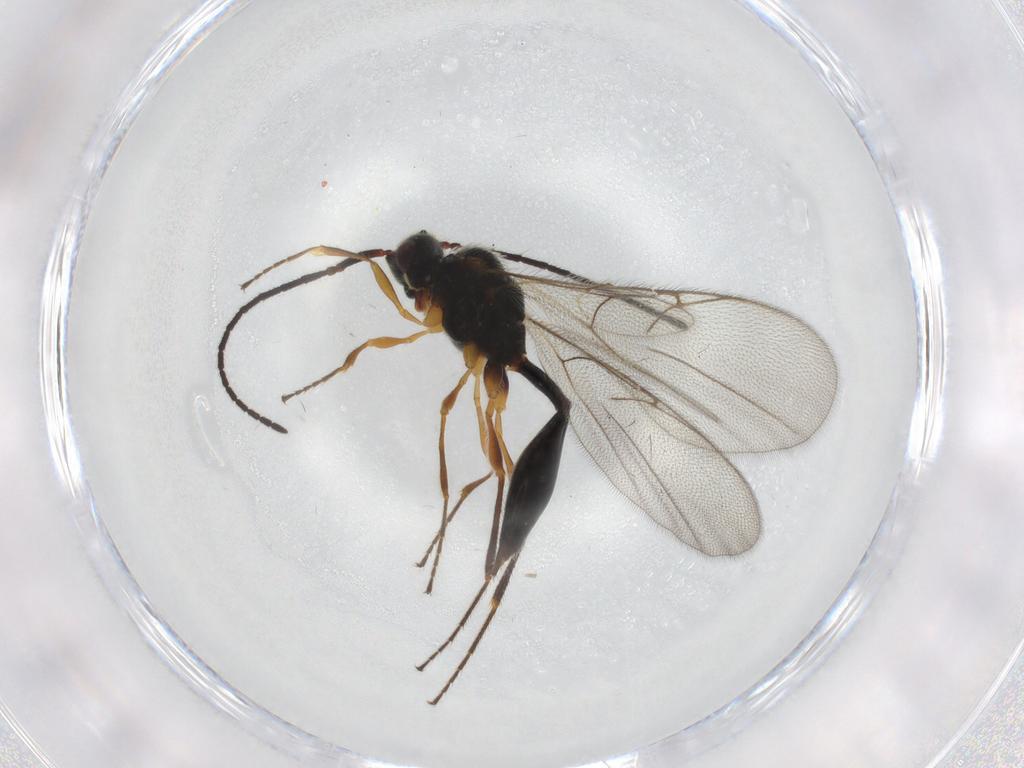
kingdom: Animalia
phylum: Arthropoda
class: Insecta
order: Hymenoptera
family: Diapriidae
